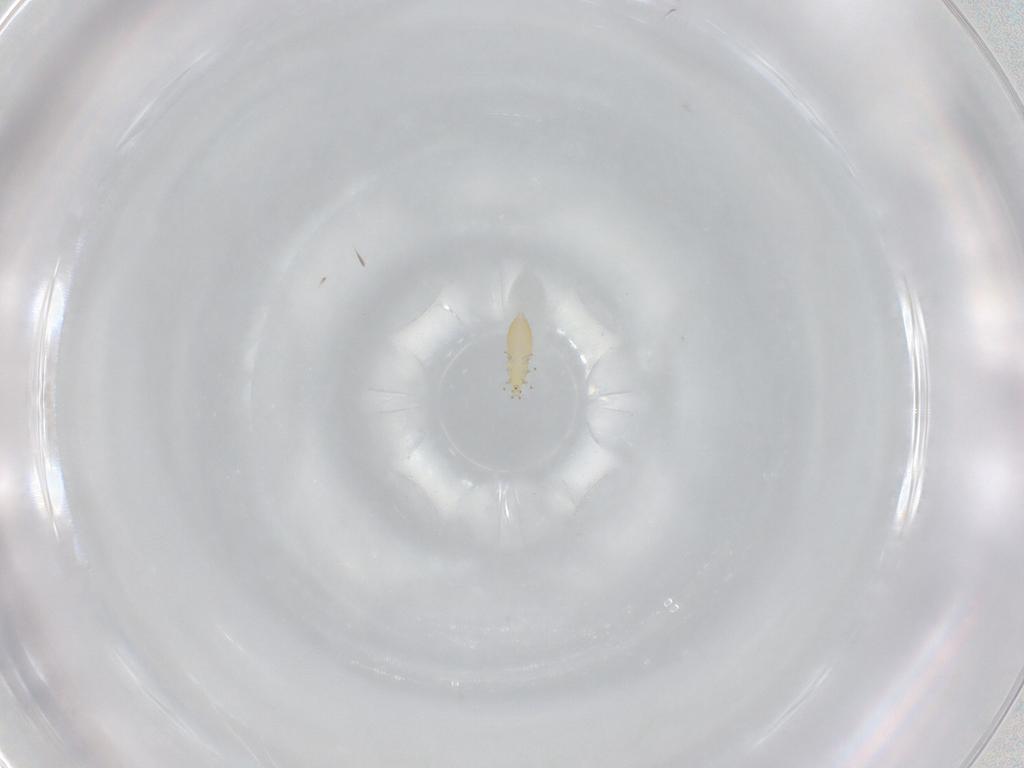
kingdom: Animalia
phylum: Arthropoda
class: Insecta
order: Thysanoptera
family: Thripidae
